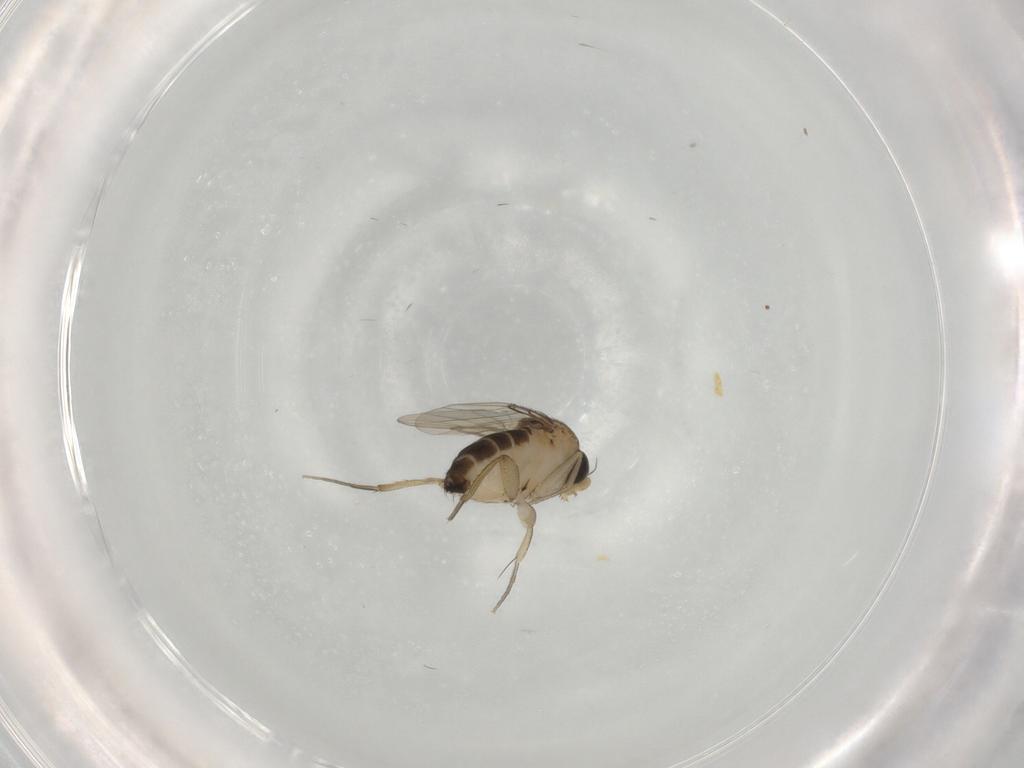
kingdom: Animalia
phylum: Arthropoda
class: Insecta
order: Diptera
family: Phoridae
